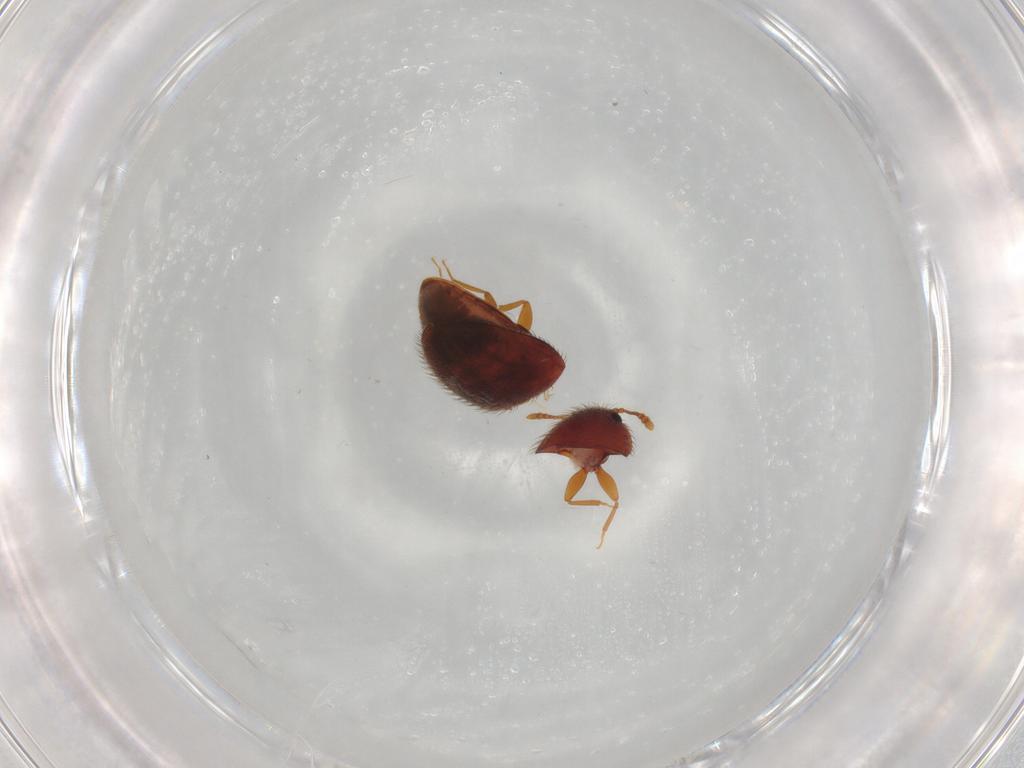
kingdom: Animalia
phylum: Arthropoda
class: Insecta
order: Coleoptera
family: Biphyllidae
